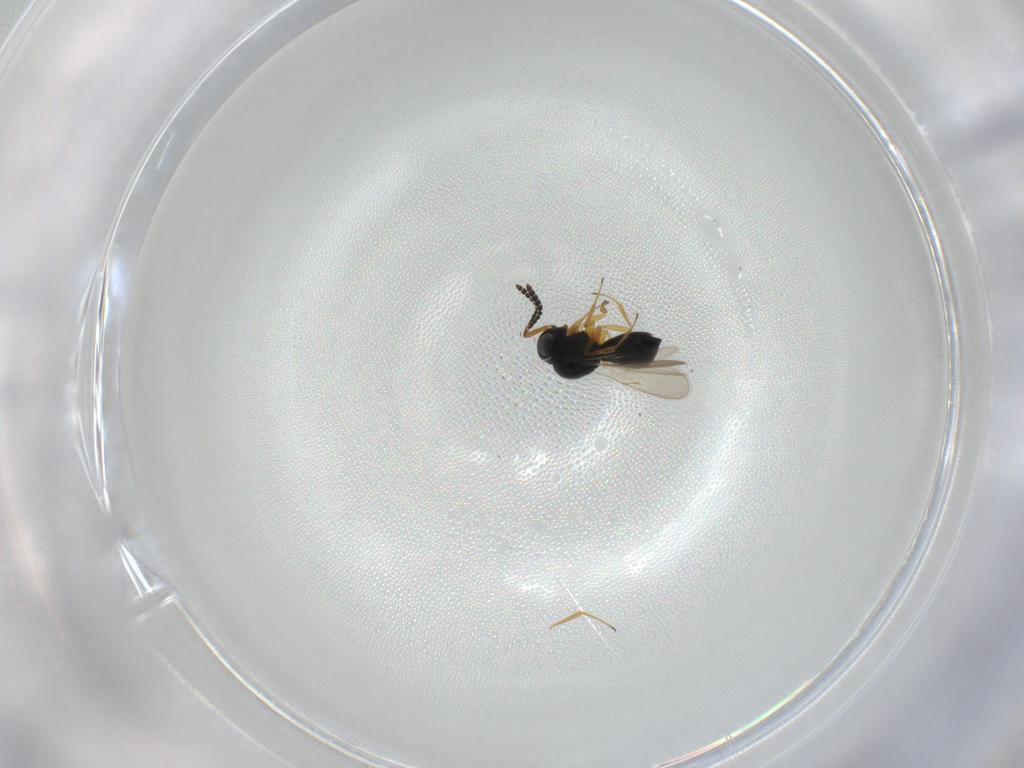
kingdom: Animalia
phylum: Arthropoda
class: Insecta
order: Hymenoptera
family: Scelionidae
